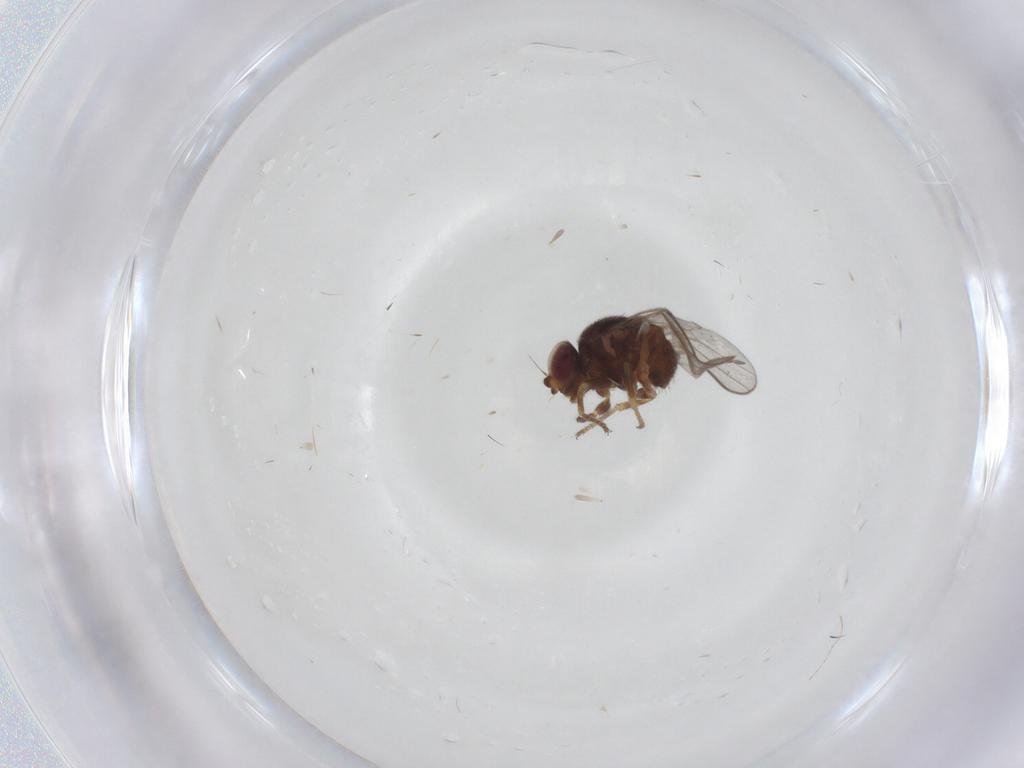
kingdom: Animalia
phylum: Arthropoda
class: Insecta
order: Diptera
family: Chloropidae
